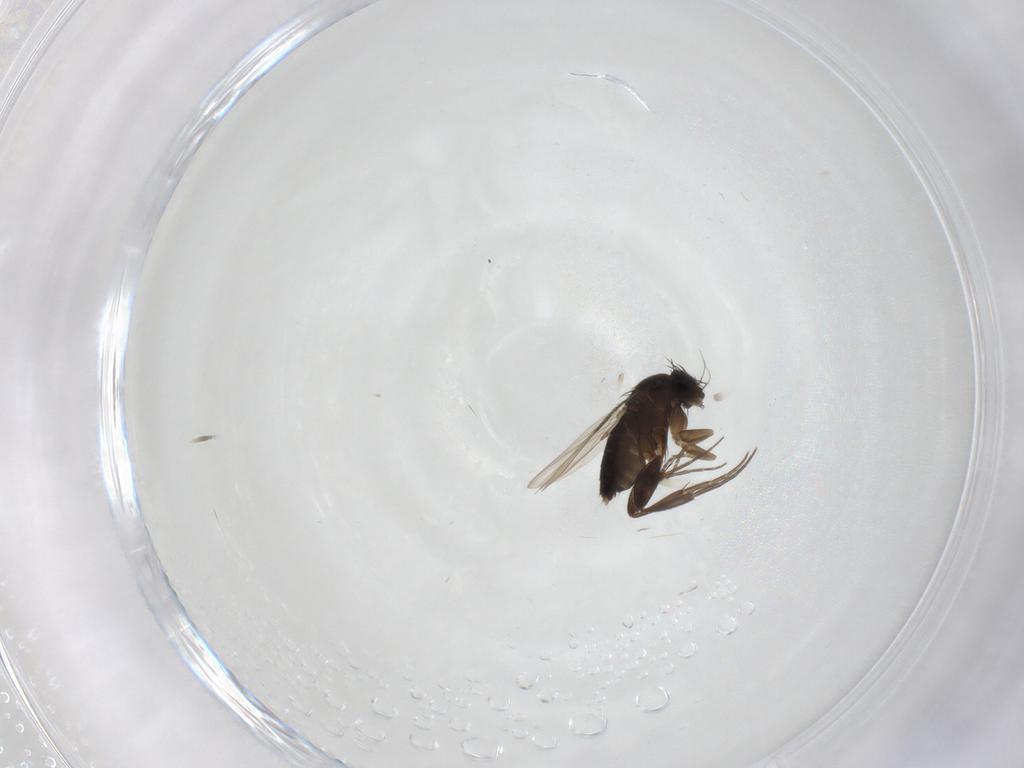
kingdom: Animalia
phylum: Arthropoda
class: Insecta
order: Diptera
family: Phoridae
